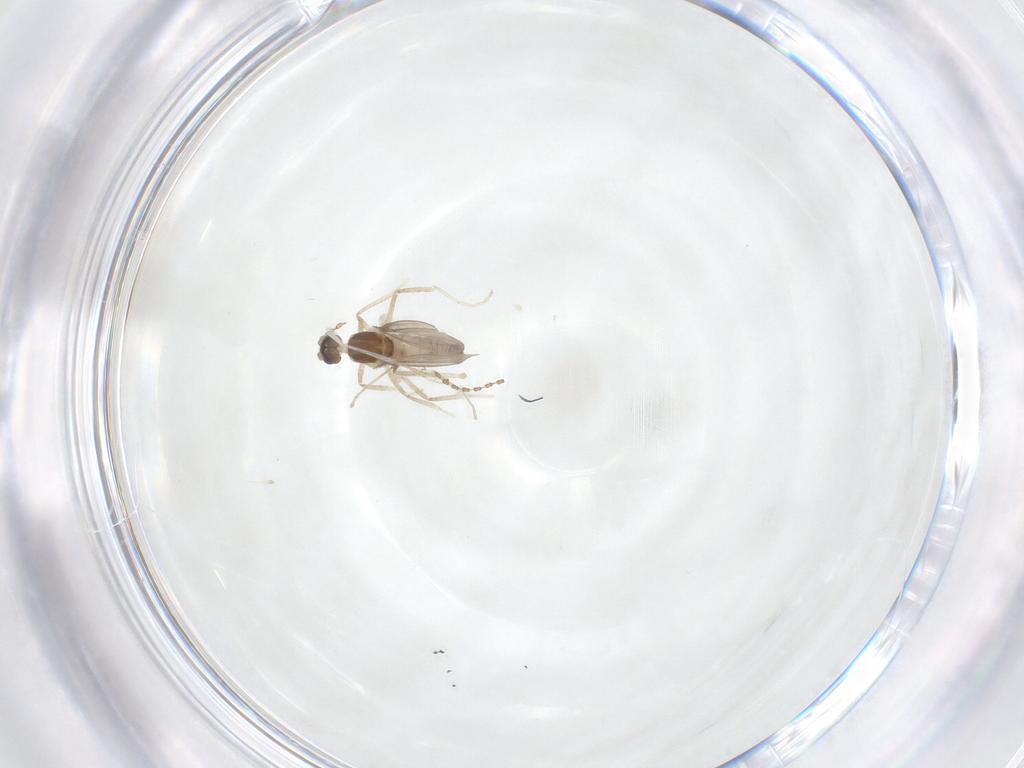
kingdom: Animalia
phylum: Arthropoda
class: Insecta
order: Diptera
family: Cecidomyiidae
